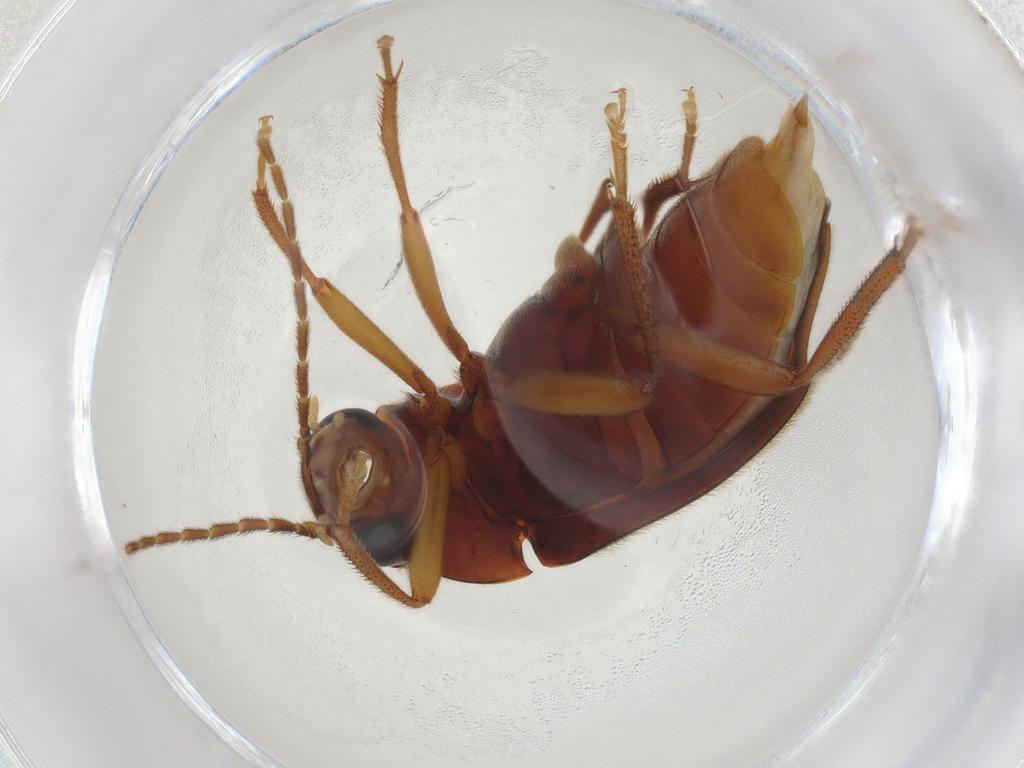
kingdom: Animalia
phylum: Arthropoda
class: Insecta
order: Coleoptera
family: Ptilodactylidae
